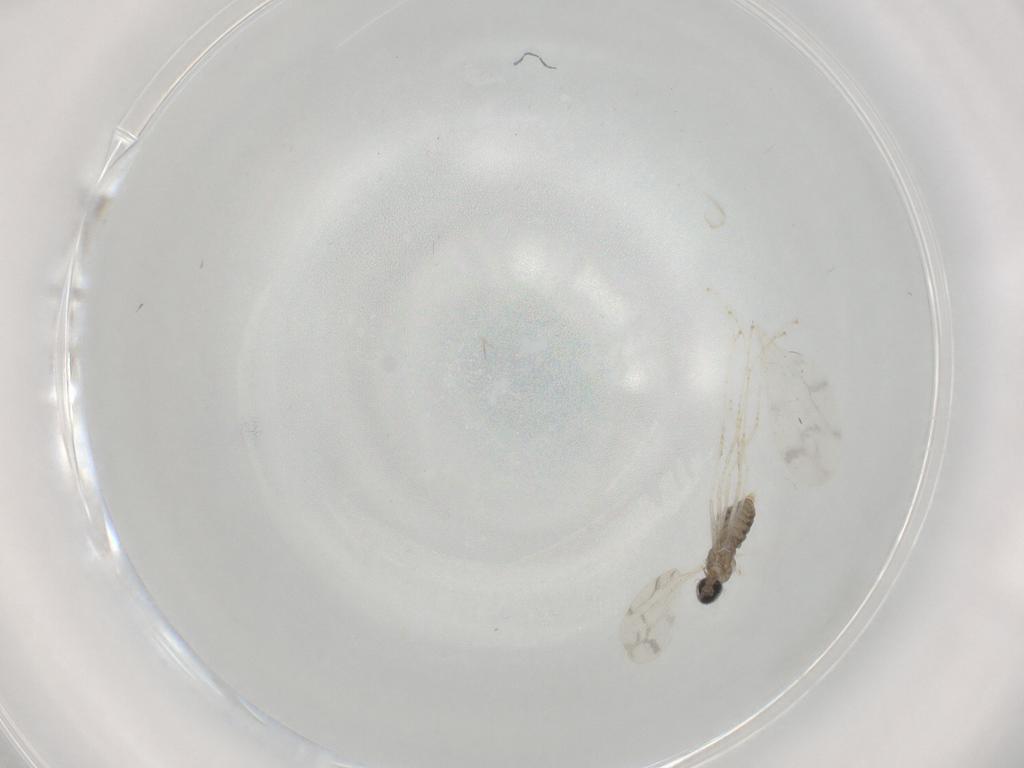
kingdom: Animalia
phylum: Arthropoda
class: Insecta
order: Diptera
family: Cecidomyiidae
